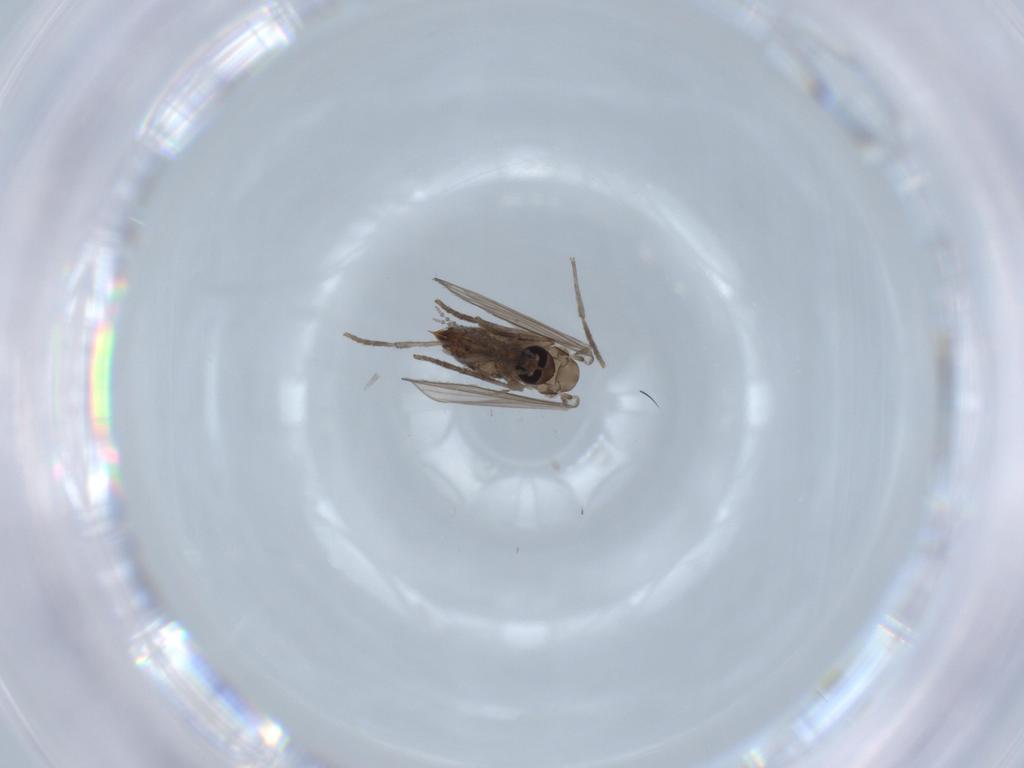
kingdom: Animalia
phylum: Arthropoda
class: Insecta
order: Diptera
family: Psychodidae
